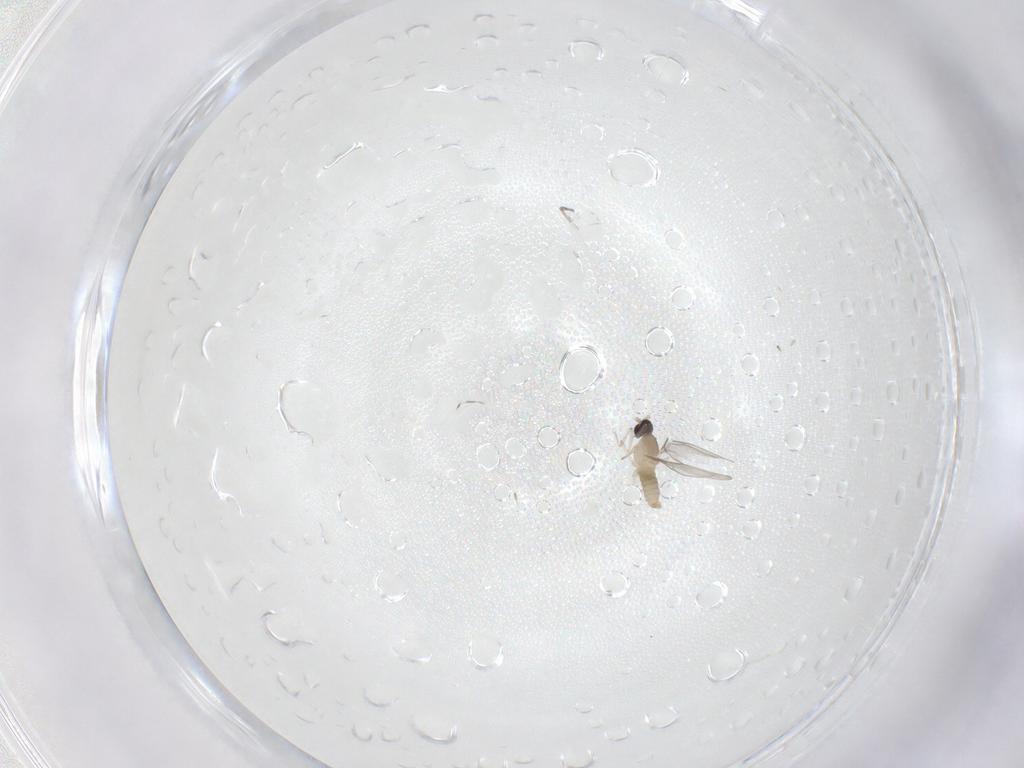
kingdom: Animalia
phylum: Arthropoda
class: Insecta
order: Diptera
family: Cecidomyiidae
